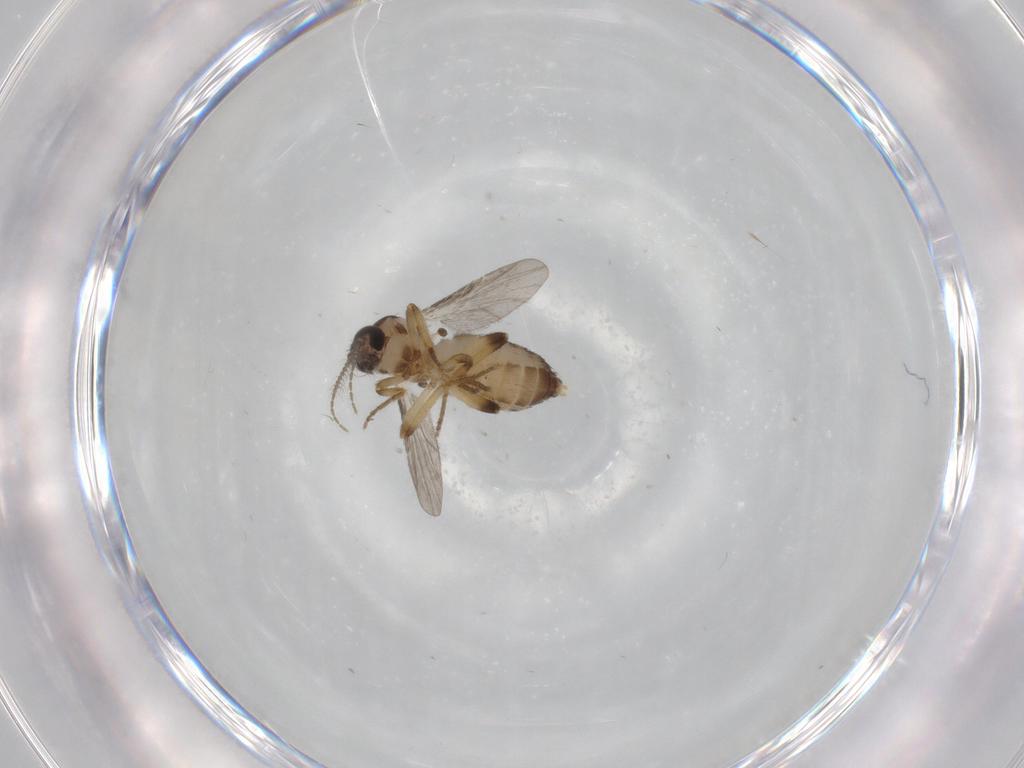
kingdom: Animalia
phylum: Arthropoda
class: Insecta
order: Diptera
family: Ceratopogonidae
